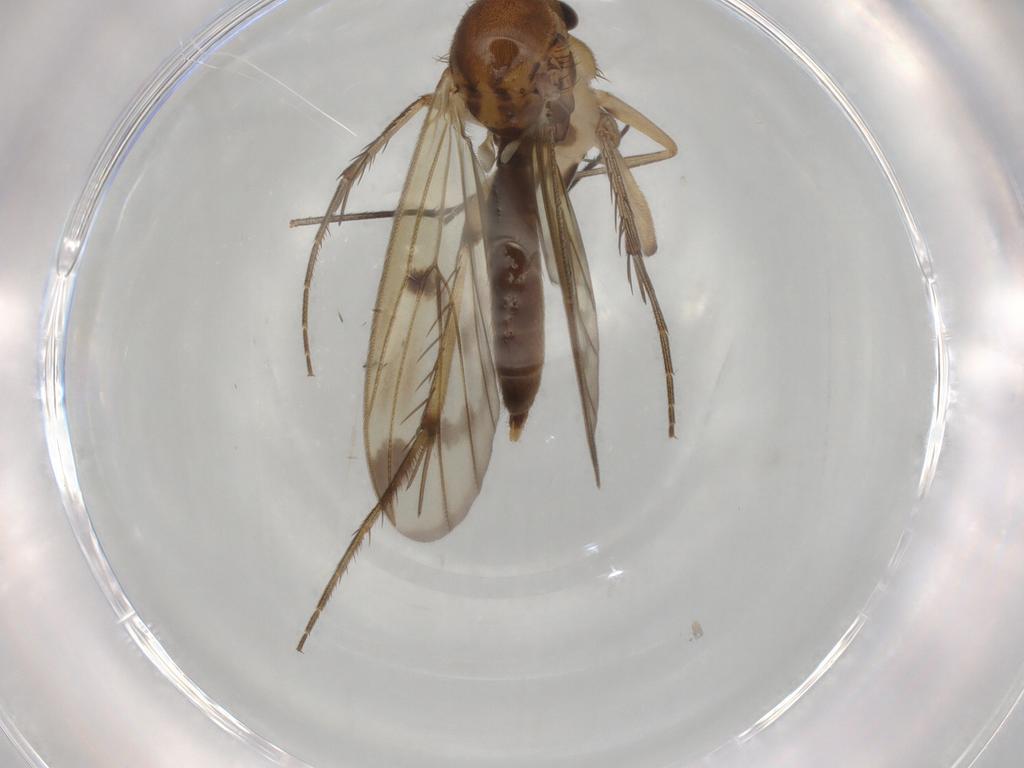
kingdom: Animalia
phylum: Arthropoda
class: Insecta
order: Diptera
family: Mycetophilidae
